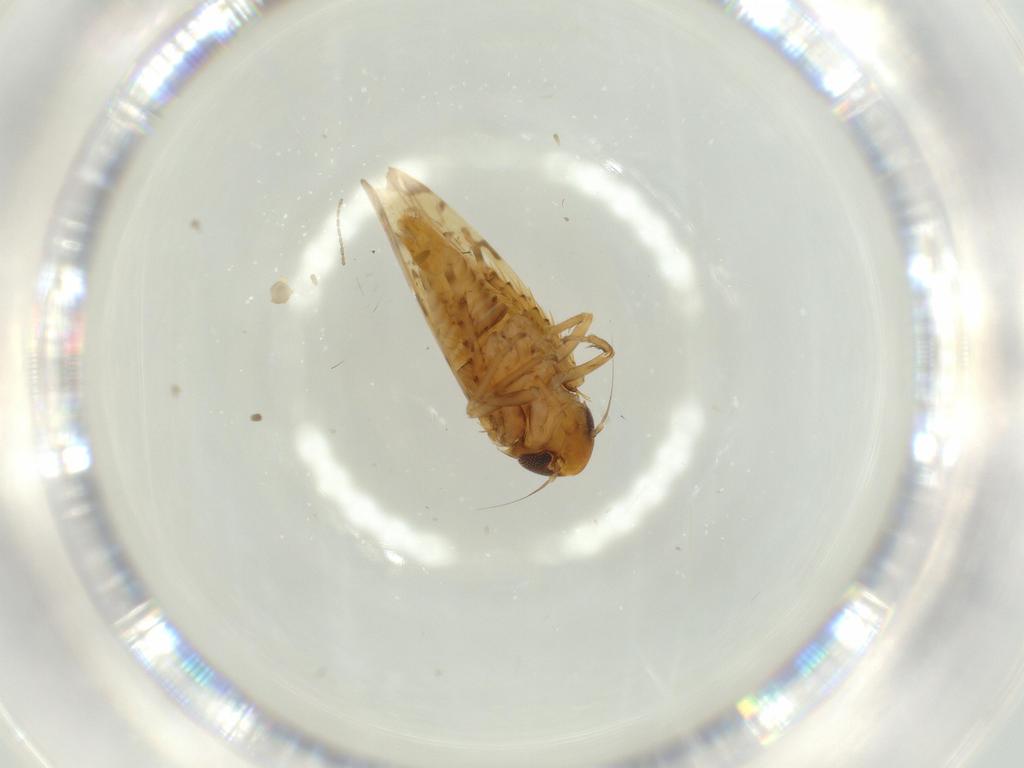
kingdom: Animalia
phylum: Arthropoda
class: Insecta
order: Hemiptera
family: Cicadellidae
